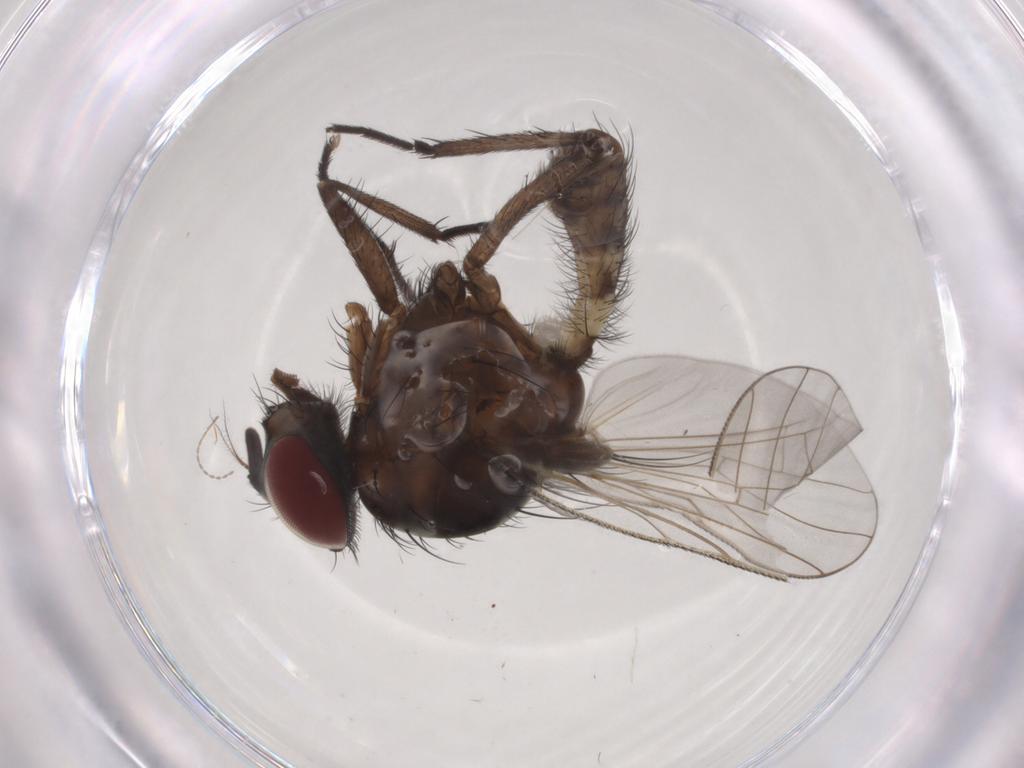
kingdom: Animalia
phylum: Arthropoda
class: Insecta
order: Diptera
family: Anthomyiidae
